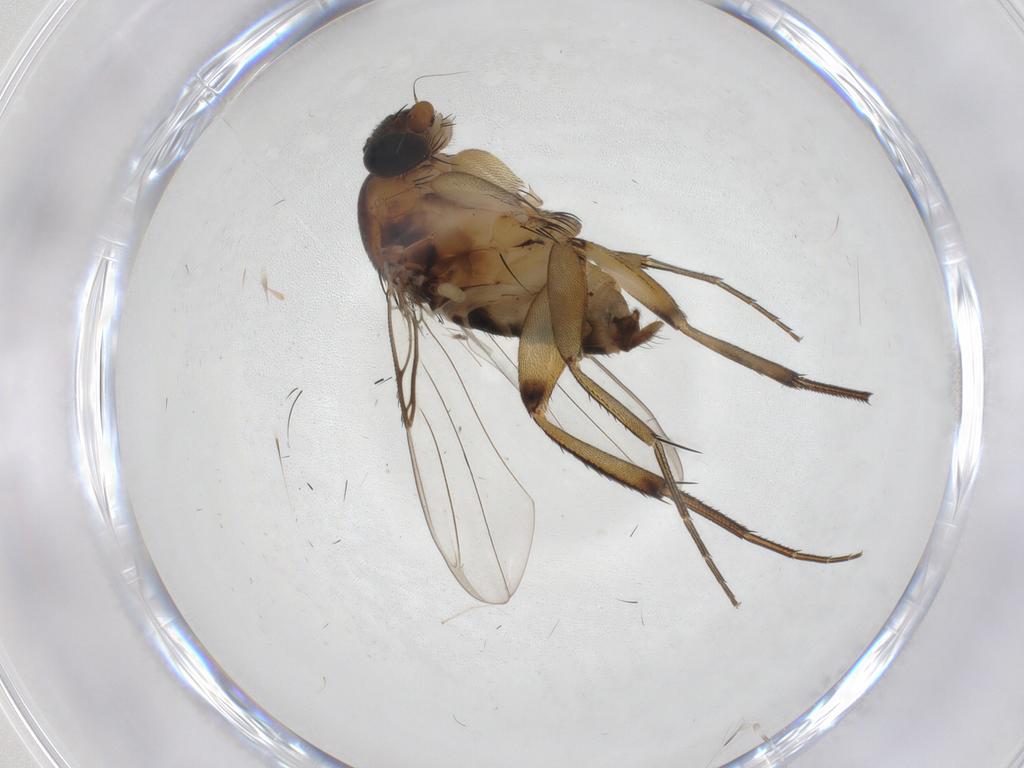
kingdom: Animalia
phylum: Arthropoda
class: Insecta
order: Diptera
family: Phoridae
